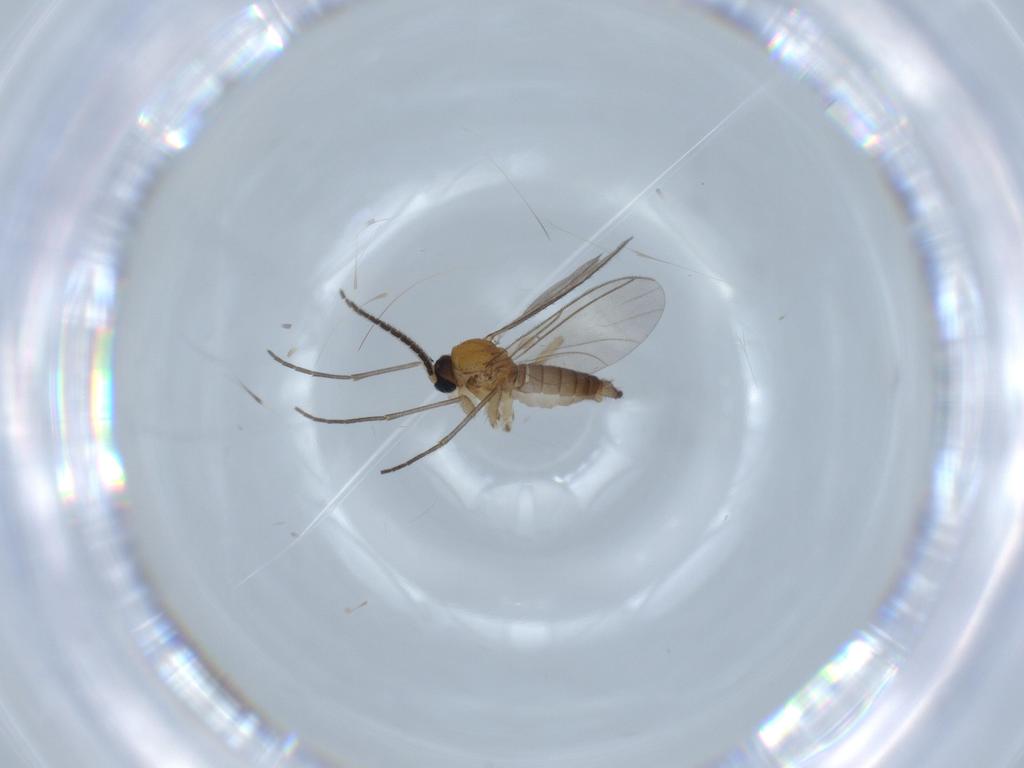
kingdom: Animalia
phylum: Arthropoda
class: Insecta
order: Diptera
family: Sciaridae
